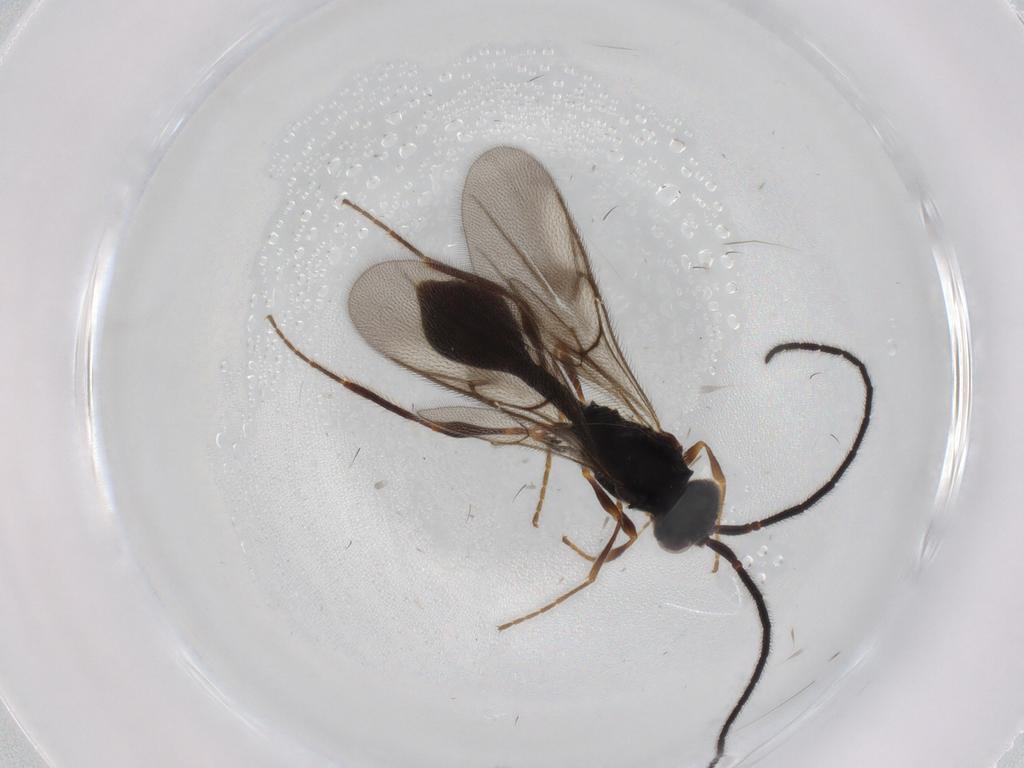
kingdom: Animalia
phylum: Arthropoda
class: Insecta
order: Hymenoptera
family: Diapriidae
